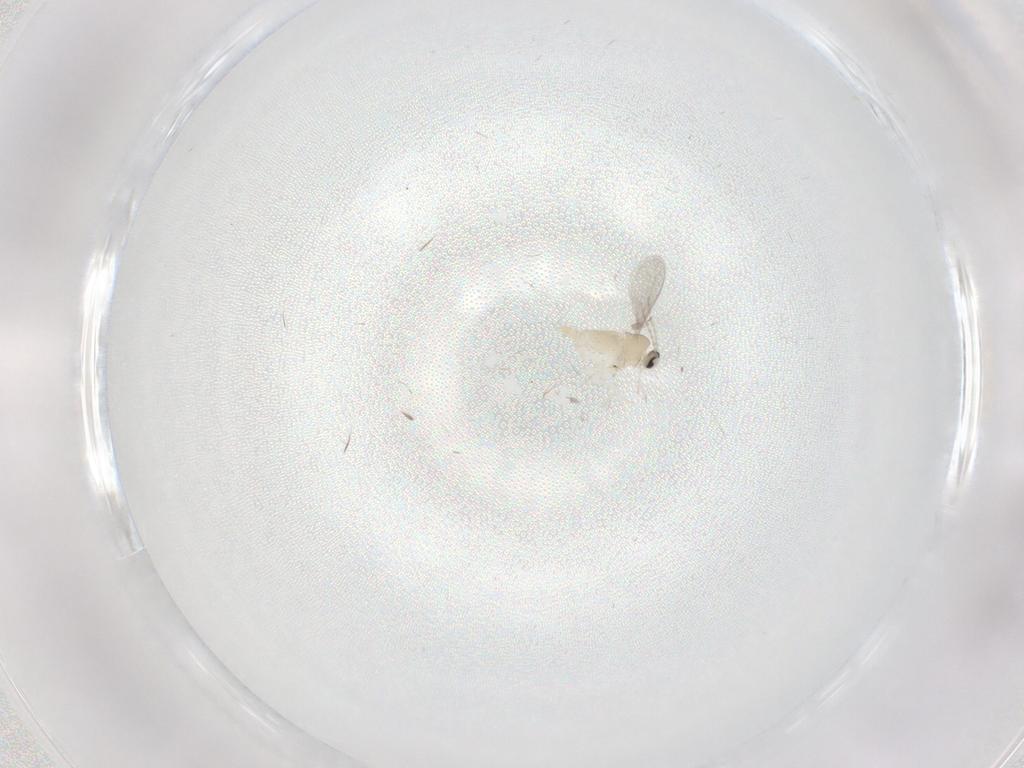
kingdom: Animalia
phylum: Arthropoda
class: Insecta
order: Diptera
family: Cecidomyiidae
